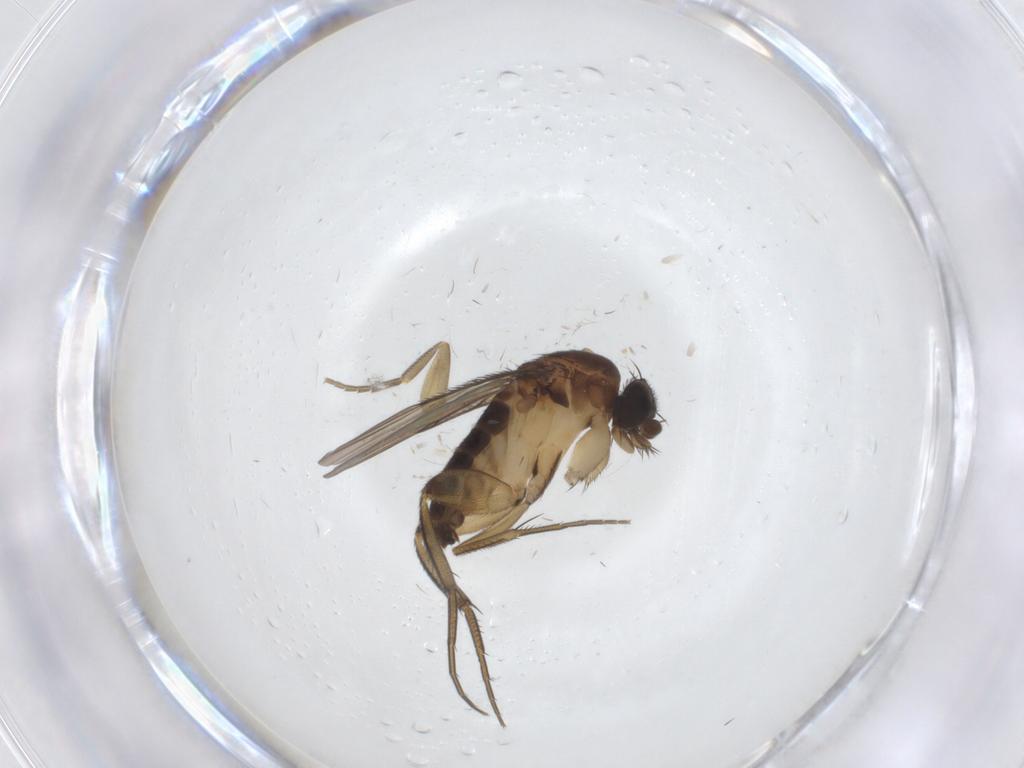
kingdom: Animalia
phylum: Arthropoda
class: Insecta
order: Diptera
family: Phoridae
